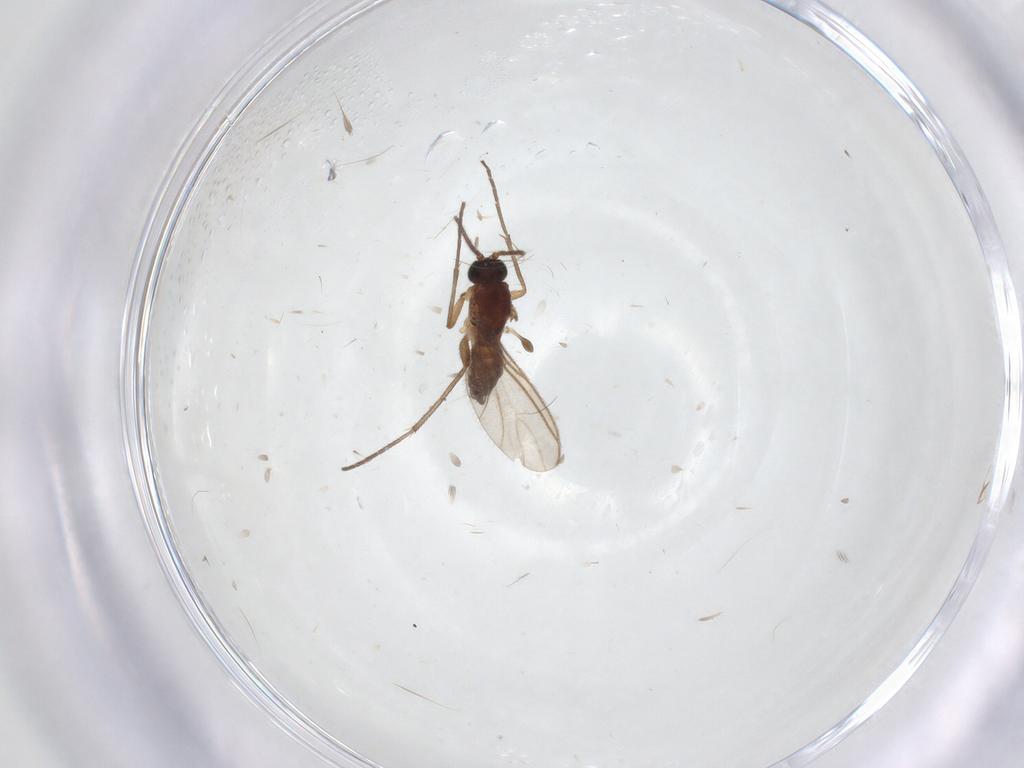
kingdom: Animalia
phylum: Arthropoda
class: Insecta
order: Diptera
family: Sciaridae
